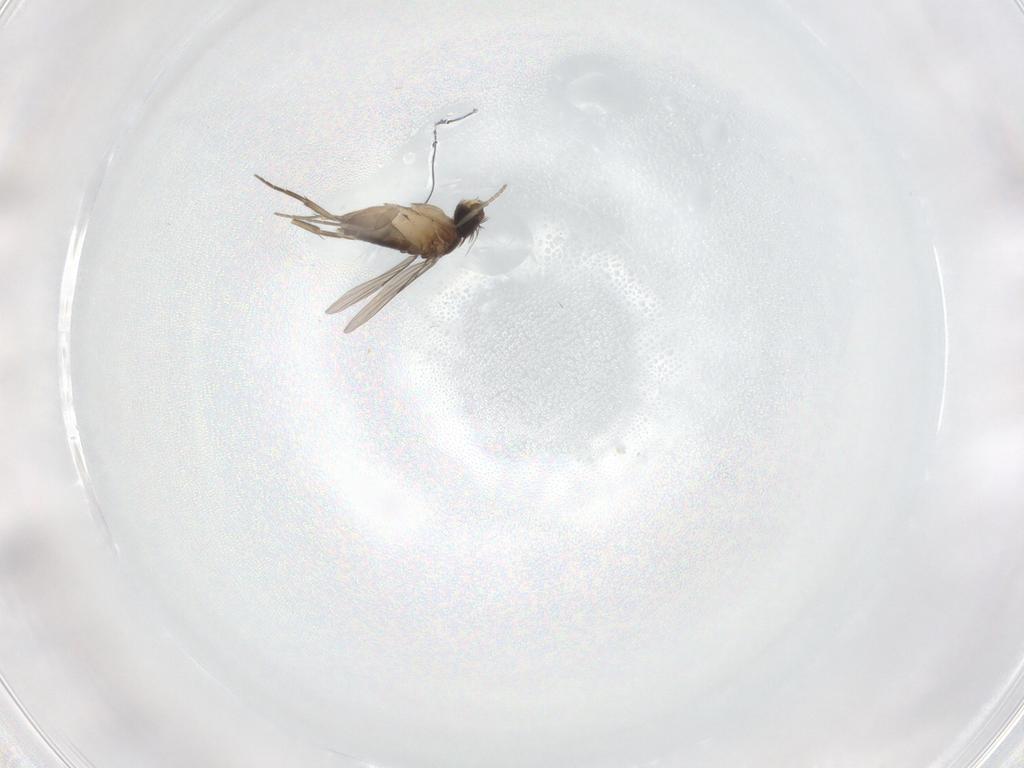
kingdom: Animalia
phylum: Arthropoda
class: Insecta
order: Diptera
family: Phoridae
